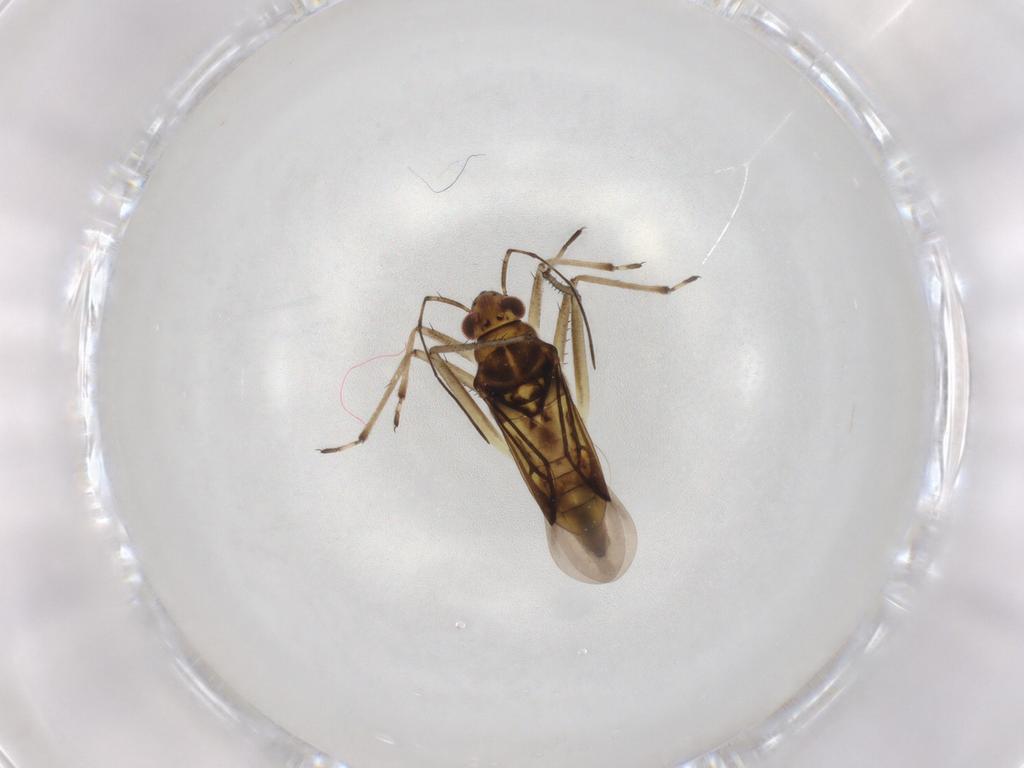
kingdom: Animalia
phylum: Arthropoda
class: Insecta
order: Hemiptera
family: Mesoveliidae
